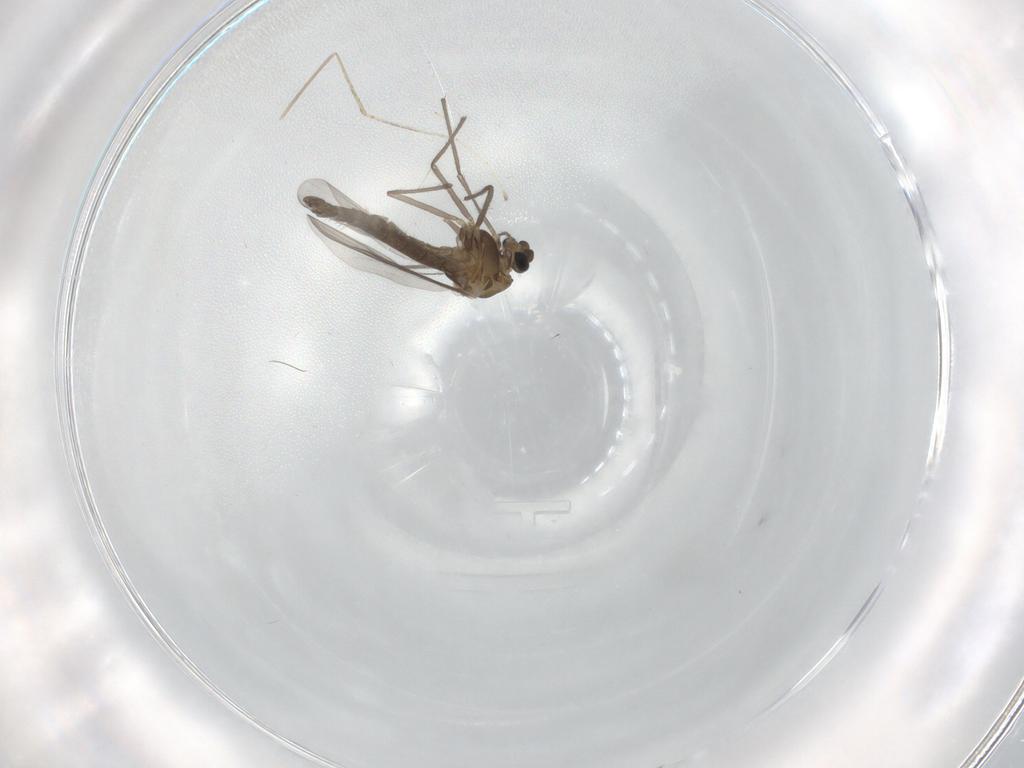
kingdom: Animalia
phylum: Arthropoda
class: Insecta
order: Diptera
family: Chironomidae
